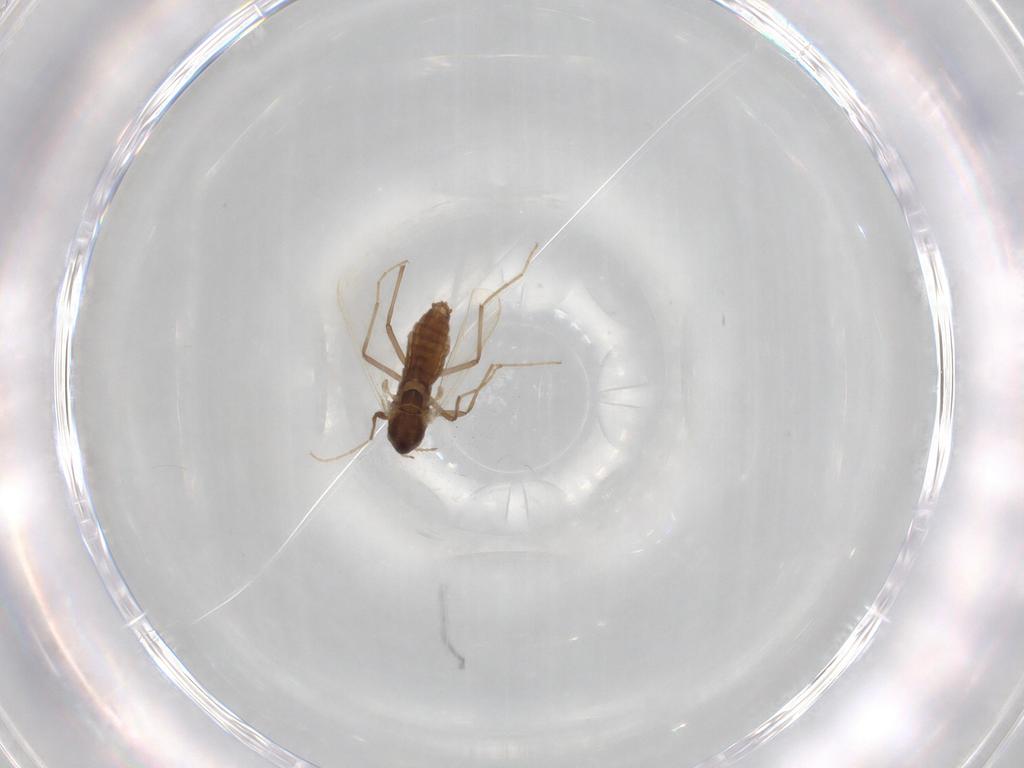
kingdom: Animalia
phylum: Arthropoda
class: Insecta
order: Diptera
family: Chironomidae
